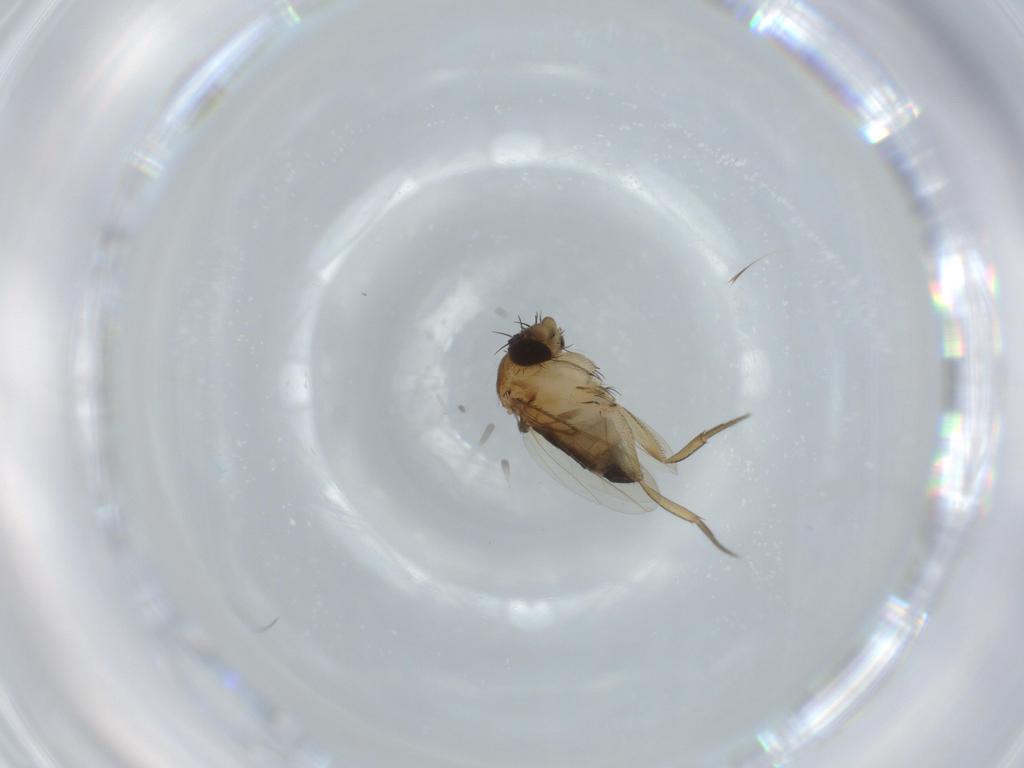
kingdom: Animalia
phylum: Arthropoda
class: Insecta
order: Diptera
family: Phoridae
